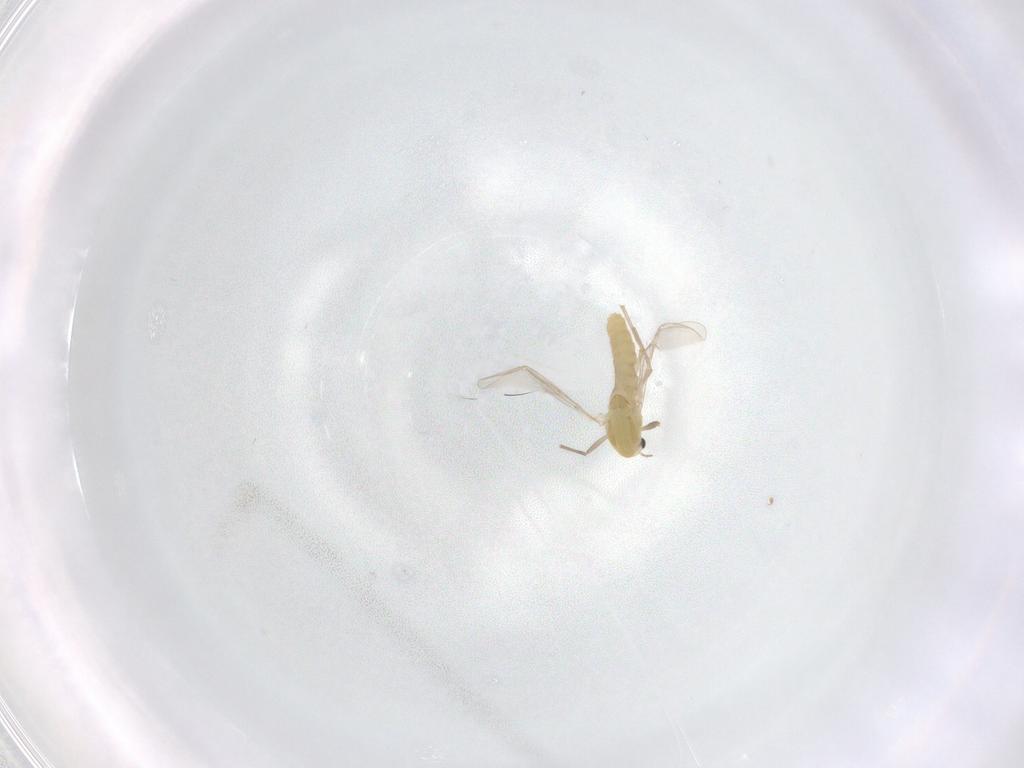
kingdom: Animalia
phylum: Arthropoda
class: Insecta
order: Diptera
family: Chironomidae
